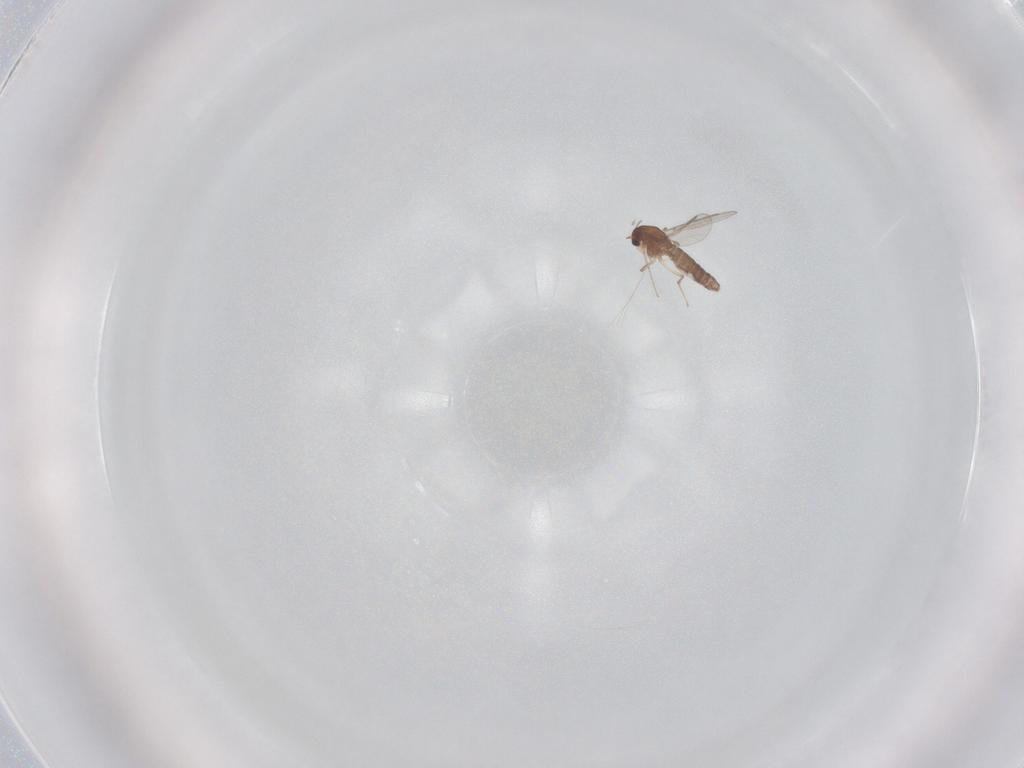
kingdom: Animalia
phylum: Arthropoda
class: Insecta
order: Diptera
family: Chironomidae
